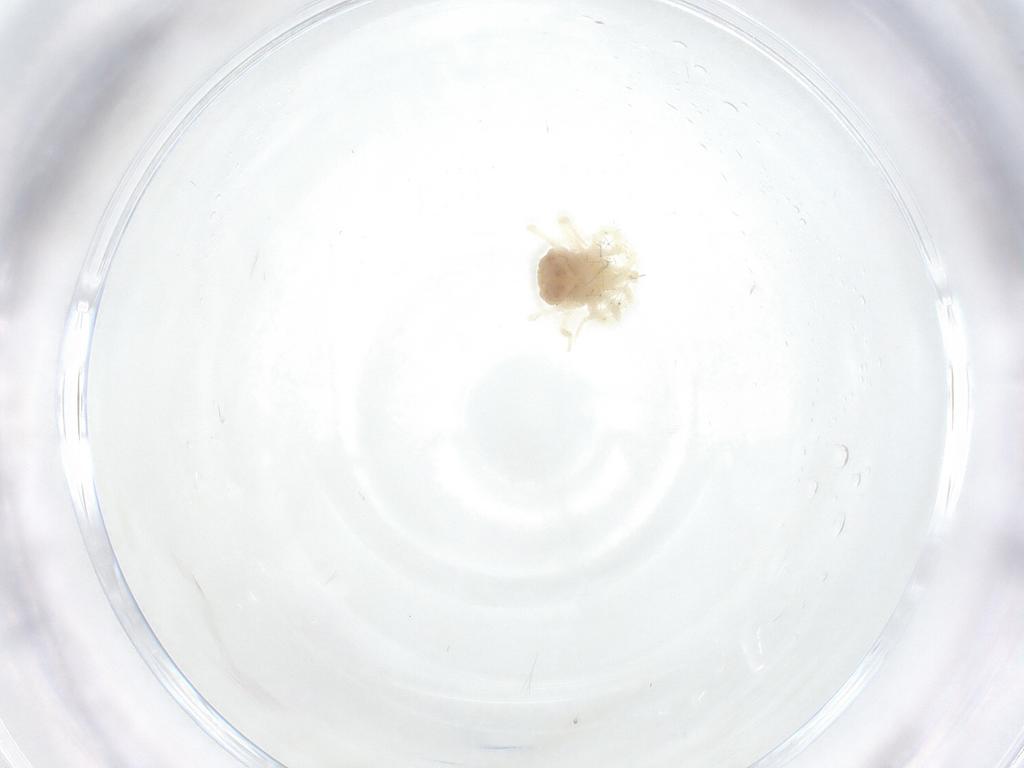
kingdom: Animalia
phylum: Arthropoda
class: Arachnida
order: Trombidiformes
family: Anystidae
